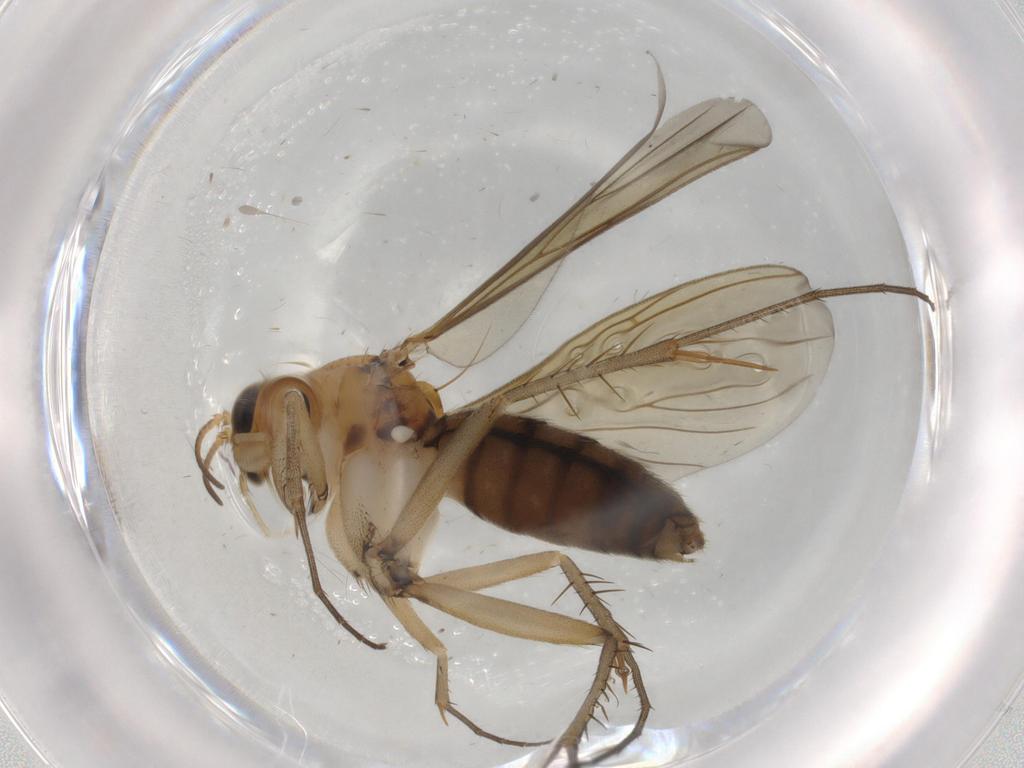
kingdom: Animalia
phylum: Arthropoda
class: Insecta
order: Diptera
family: Mycetophilidae
